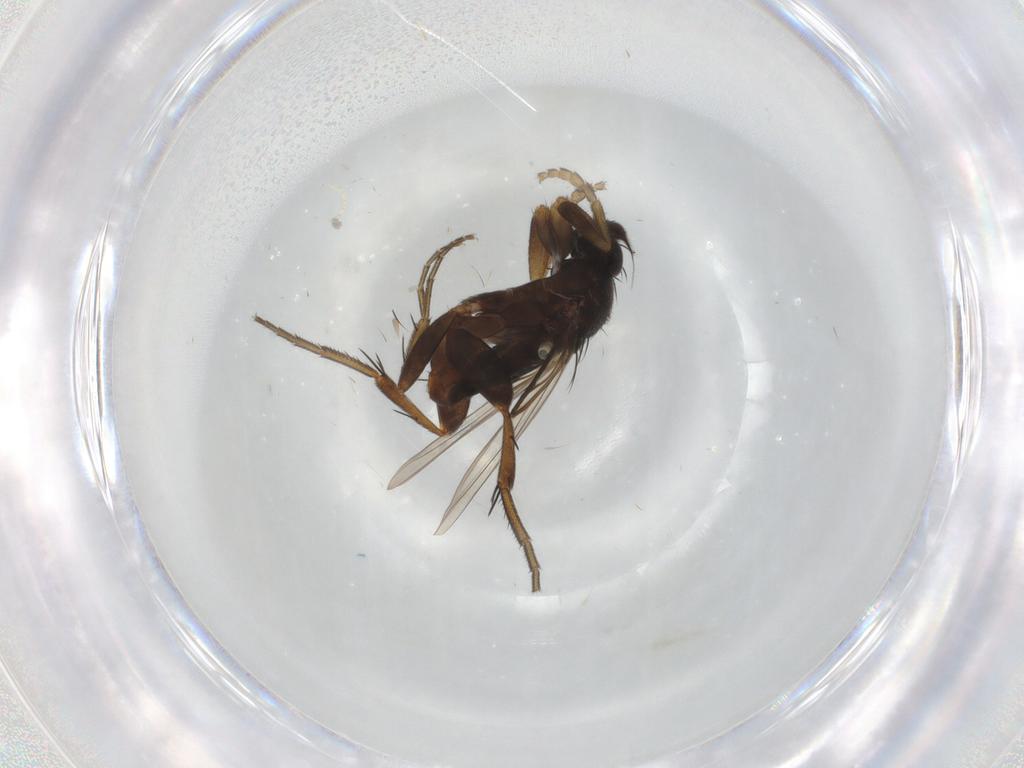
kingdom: Animalia
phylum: Arthropoda
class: Insecta
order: Diptera
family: Phoridae
